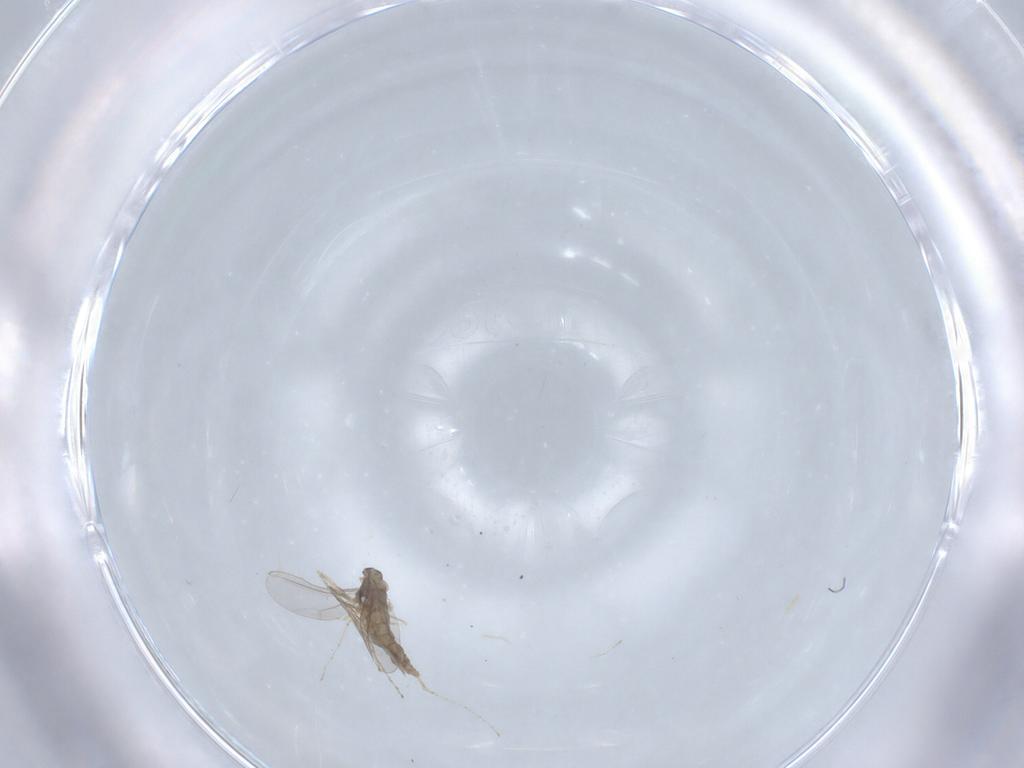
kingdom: Animalia
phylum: Arthropoda
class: Insecta
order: Diptera
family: Cecidomyiidae
